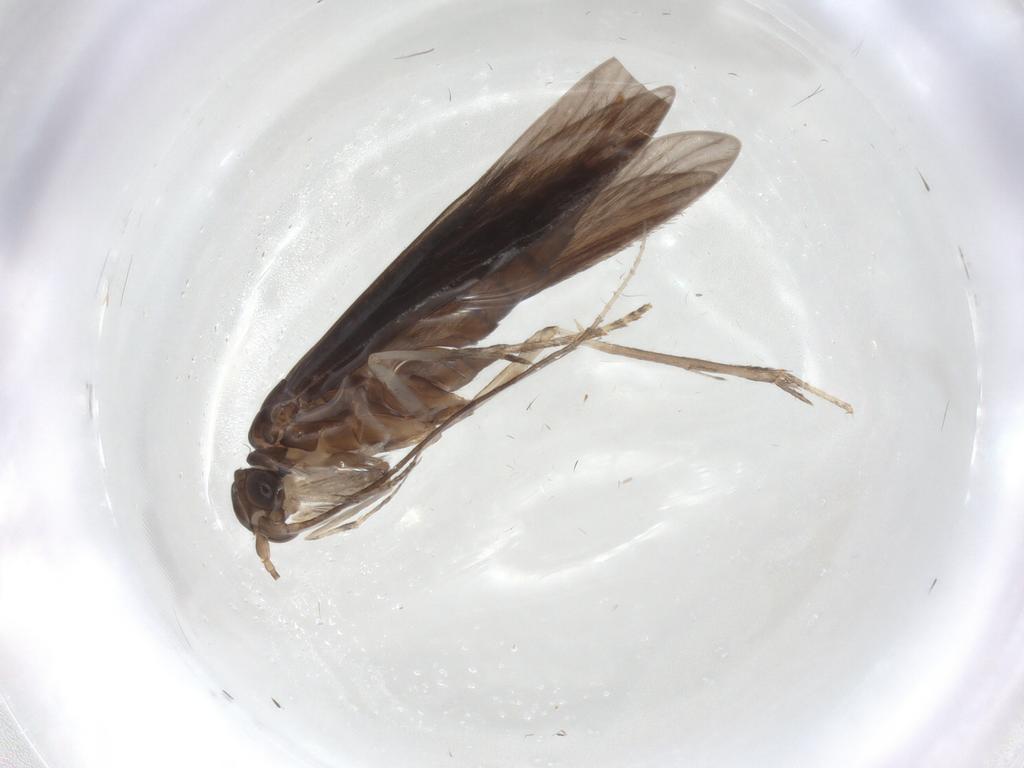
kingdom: Animalia
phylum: Arthropoda
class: Insecta
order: Trichoptera
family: Xiphocentronidae
